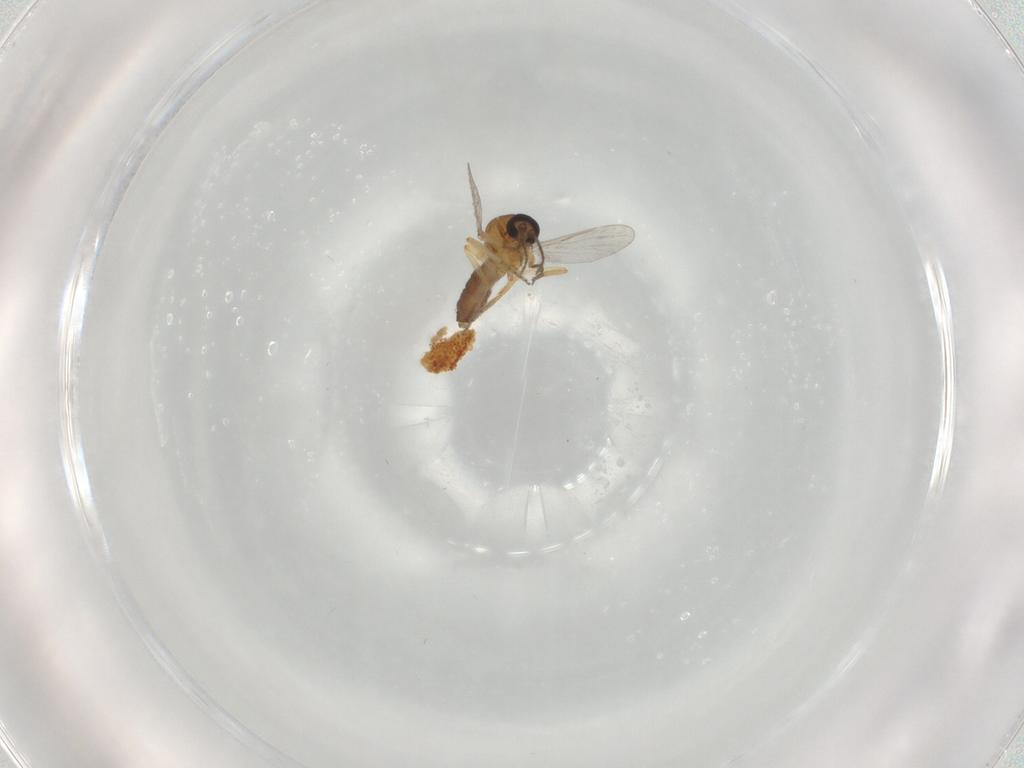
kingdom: Animalia
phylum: Arthropoda
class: Insecta
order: Diptera
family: Ceratopogonidae
